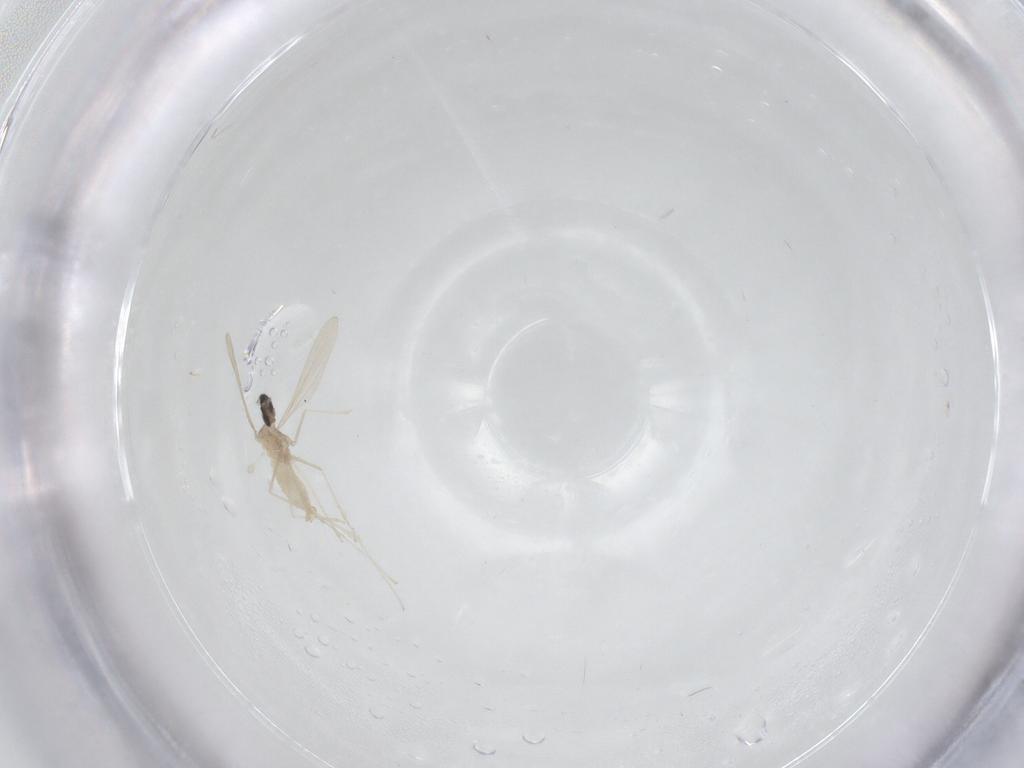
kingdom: Animalia
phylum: Arthropoda
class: Insecta
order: Diptera
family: Cecidomyiidae
